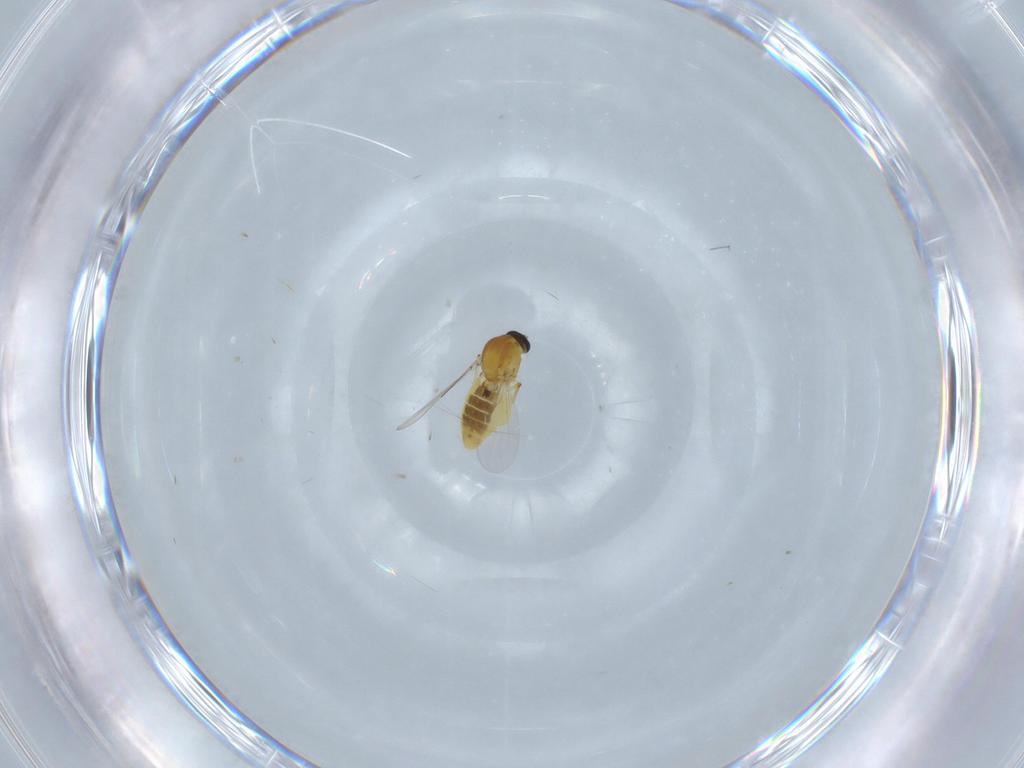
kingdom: Animalia
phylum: Arthropoda
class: Insecta
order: Diptera
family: Ceratopogonidae
